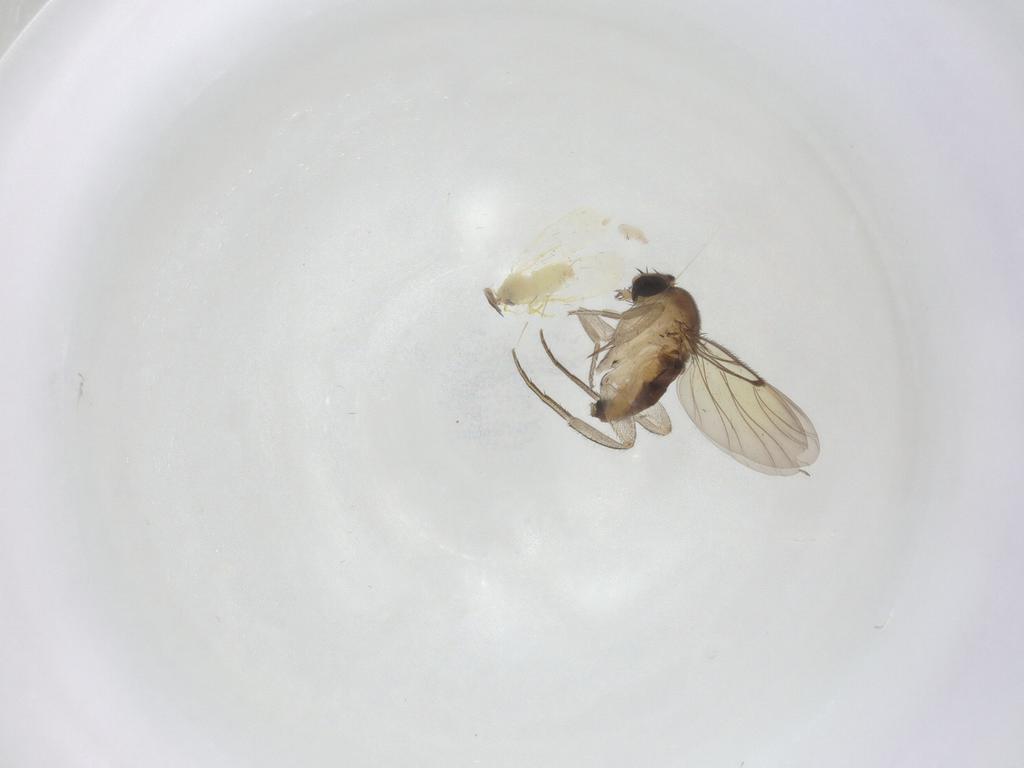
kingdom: Animalia
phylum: Arthropoda
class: Insecta
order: Hemiptera
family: Aleyrodidae
